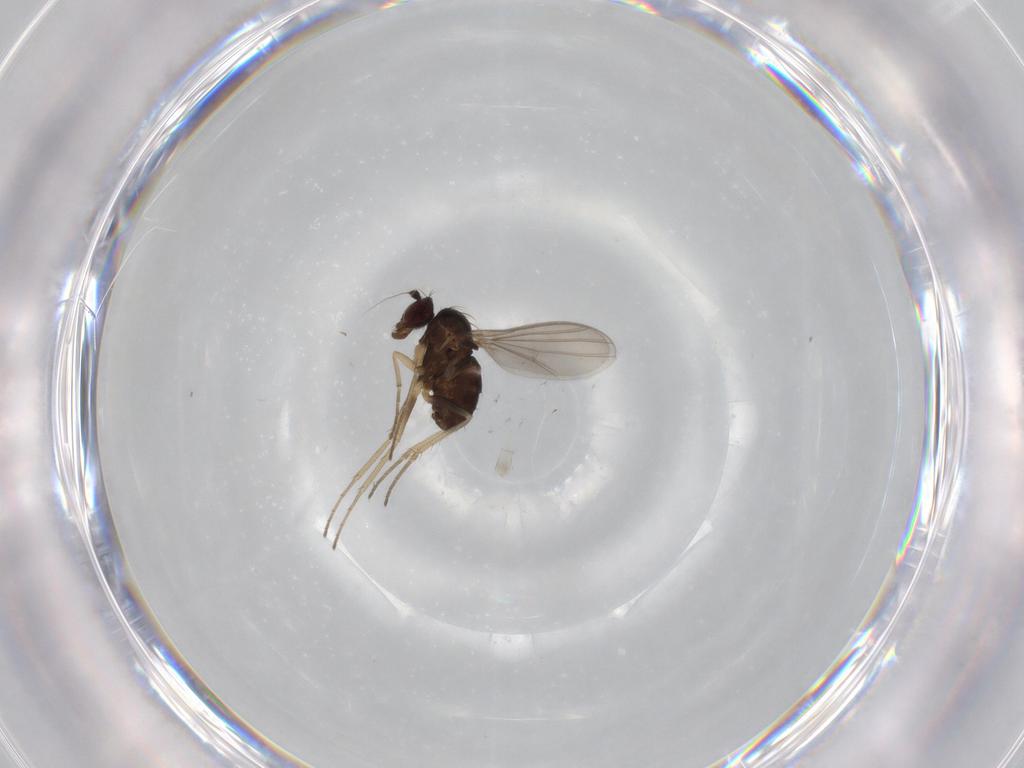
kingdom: Animalia
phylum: Arthropoda
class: Insecta
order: Diptera
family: Dolichopodidae
